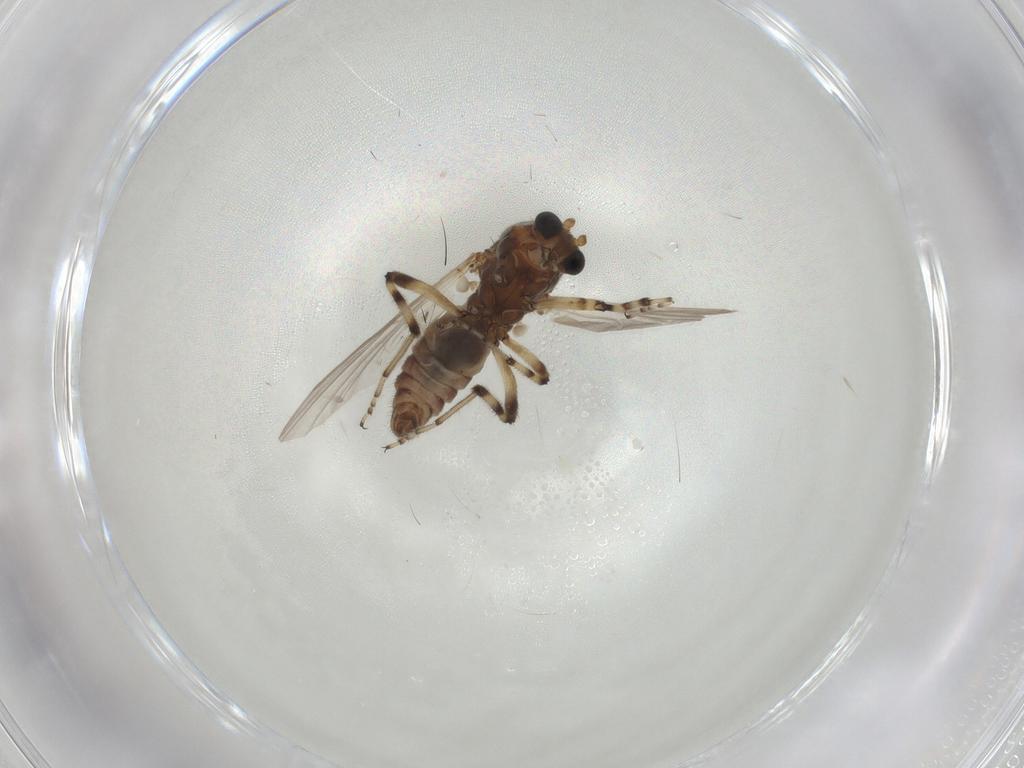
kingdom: Animalia
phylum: Arthropoda
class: Insecta
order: Diptera
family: Ceratopogonidae
